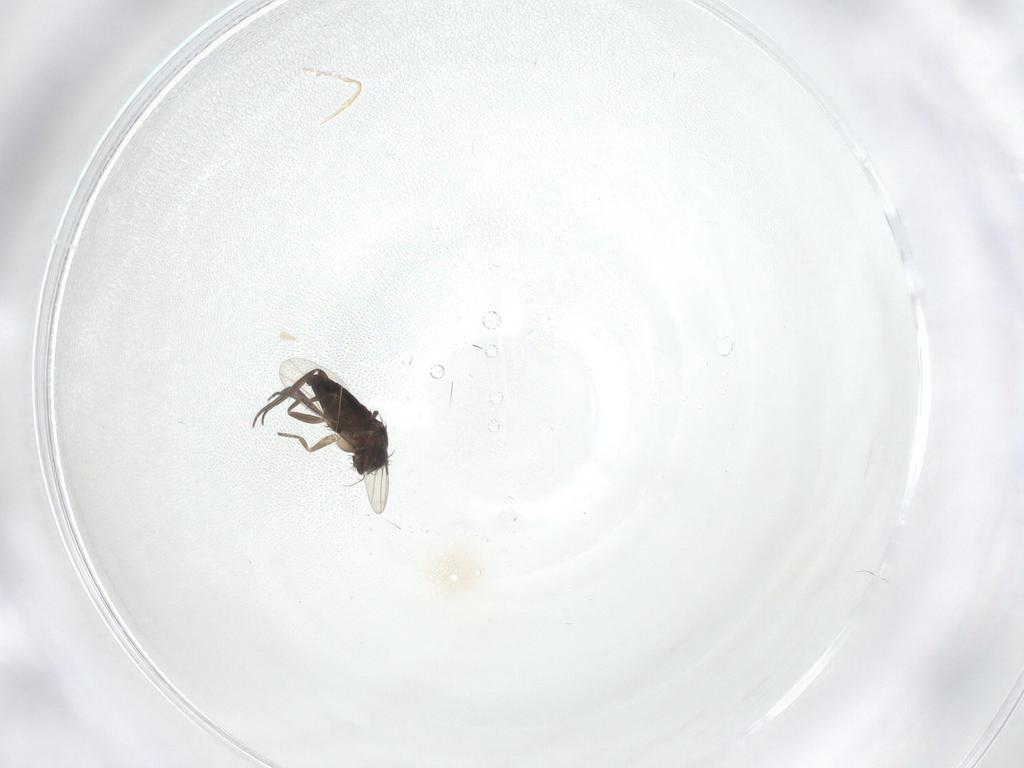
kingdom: Animalia
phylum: Arthropoda
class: Insecta
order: Diptera
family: Phoridae
